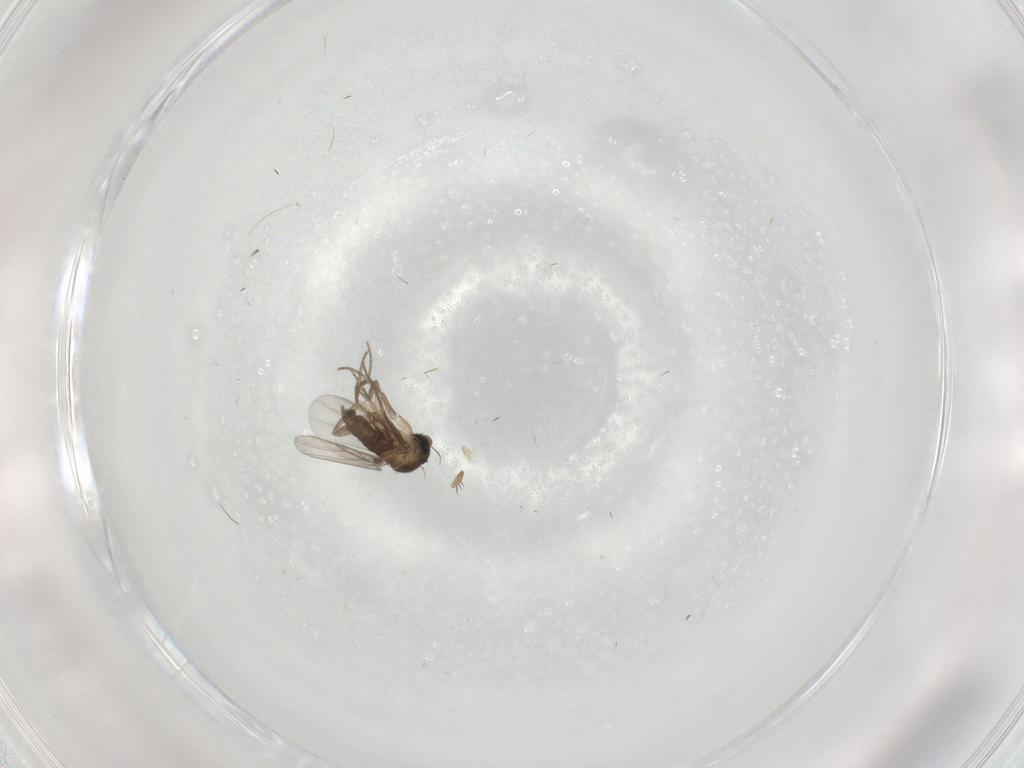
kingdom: Animalia
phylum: Arthropoda
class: Insecta
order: Diptera
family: Phoridae
